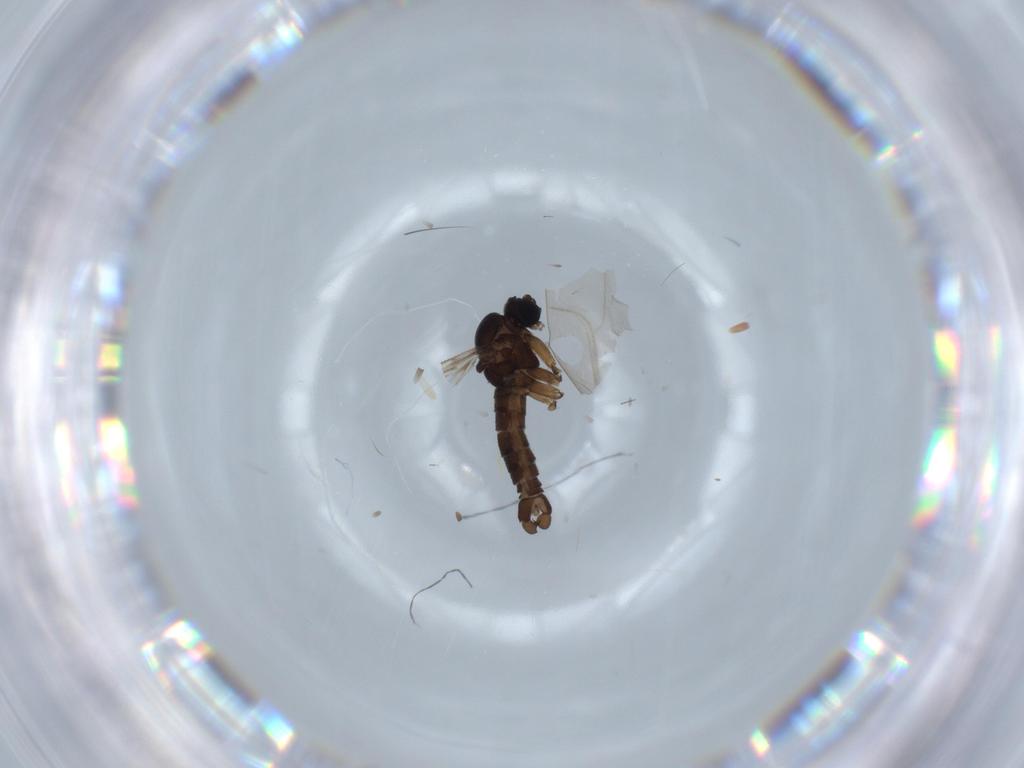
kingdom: Animalia
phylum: Arthropoda
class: Insecta
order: Diptera
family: Sciaridae
